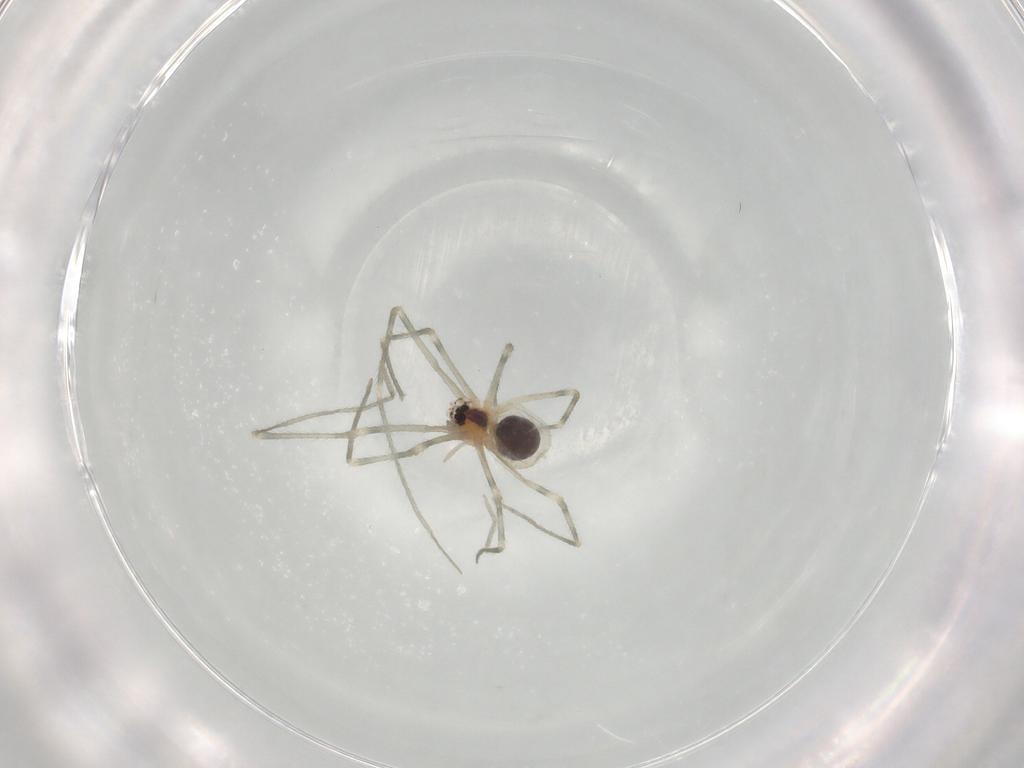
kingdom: Animalia
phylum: Arthropoda
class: Arachnida
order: Araneae
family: Pholcidae
